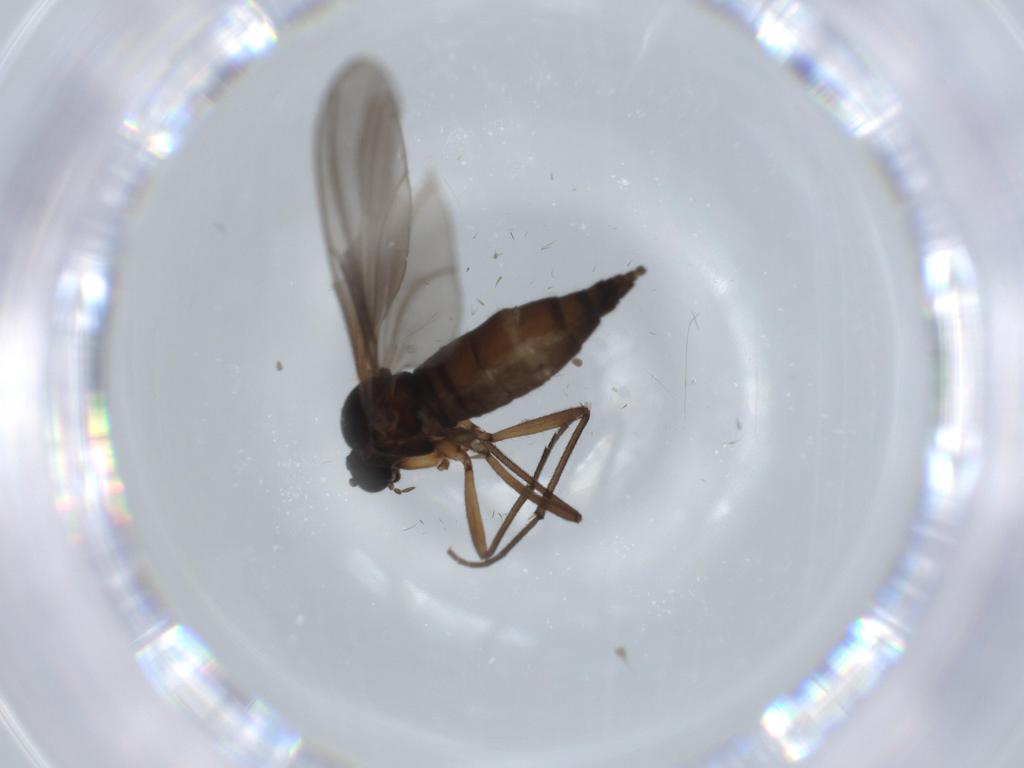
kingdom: Animalia
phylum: Arthropoda
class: Insecta
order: Diptera
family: Sciaridae
